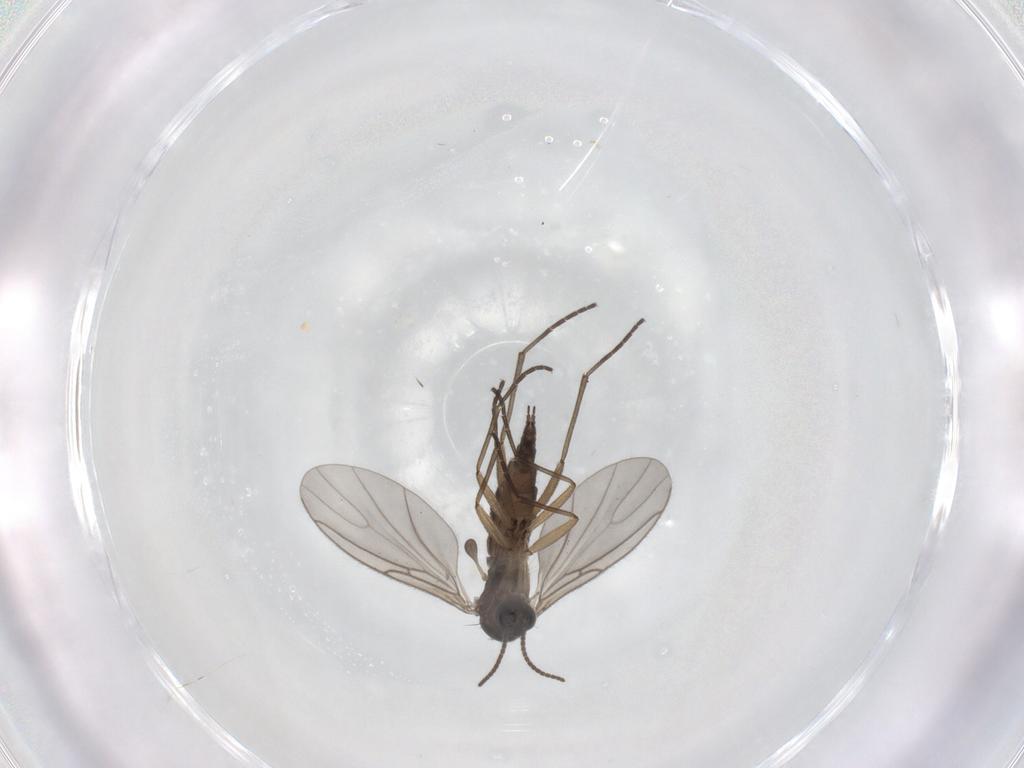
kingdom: Animalia
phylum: Arthropoda
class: Insecta
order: Diptera
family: Sciaridae
